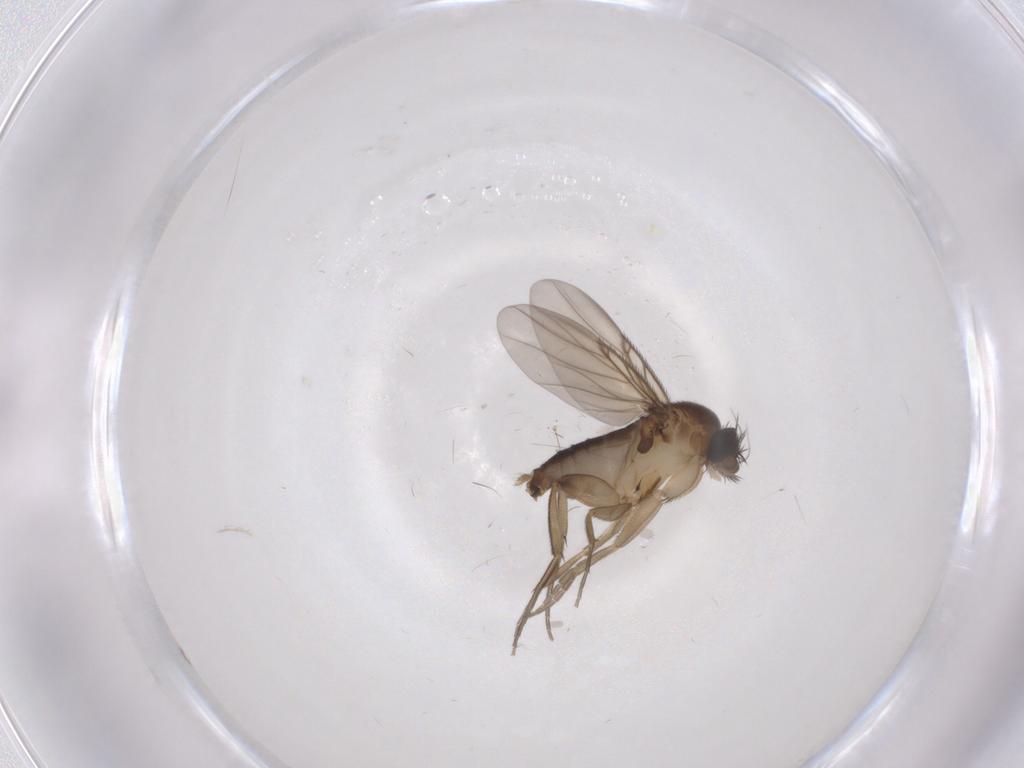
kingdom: Animalia
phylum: Arthropoda
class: Insecta
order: Diptera
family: Phoridae
